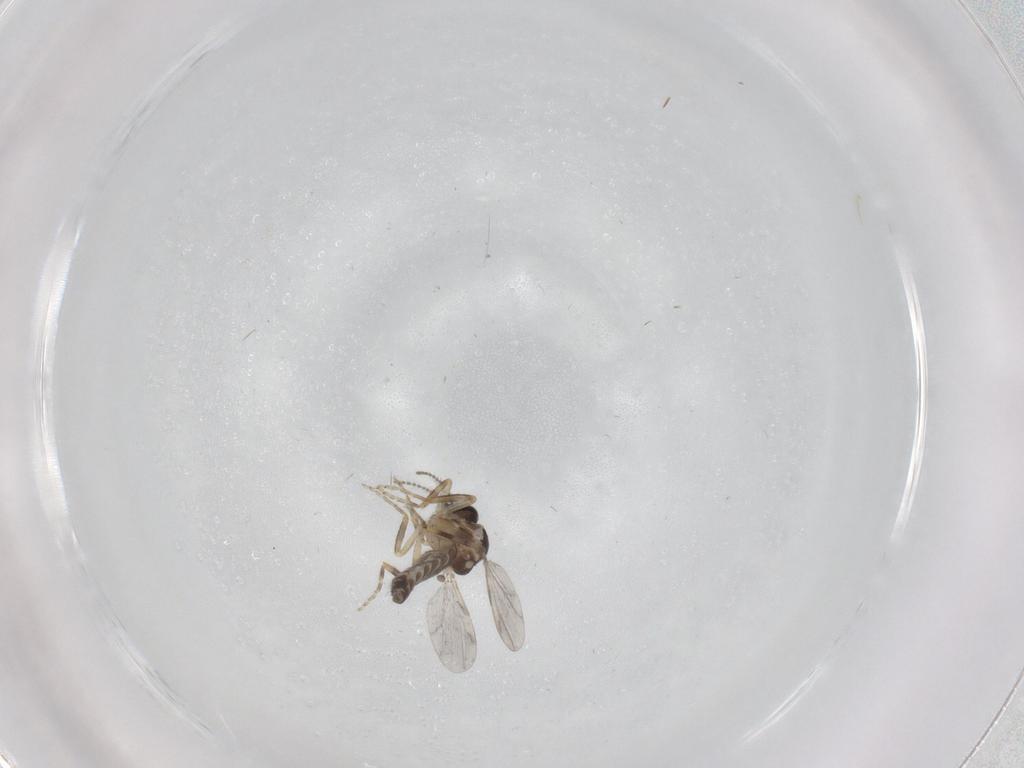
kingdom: Animalia
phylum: Arthropoda
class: Insecta
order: Diptera
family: Ceratopogonidae
